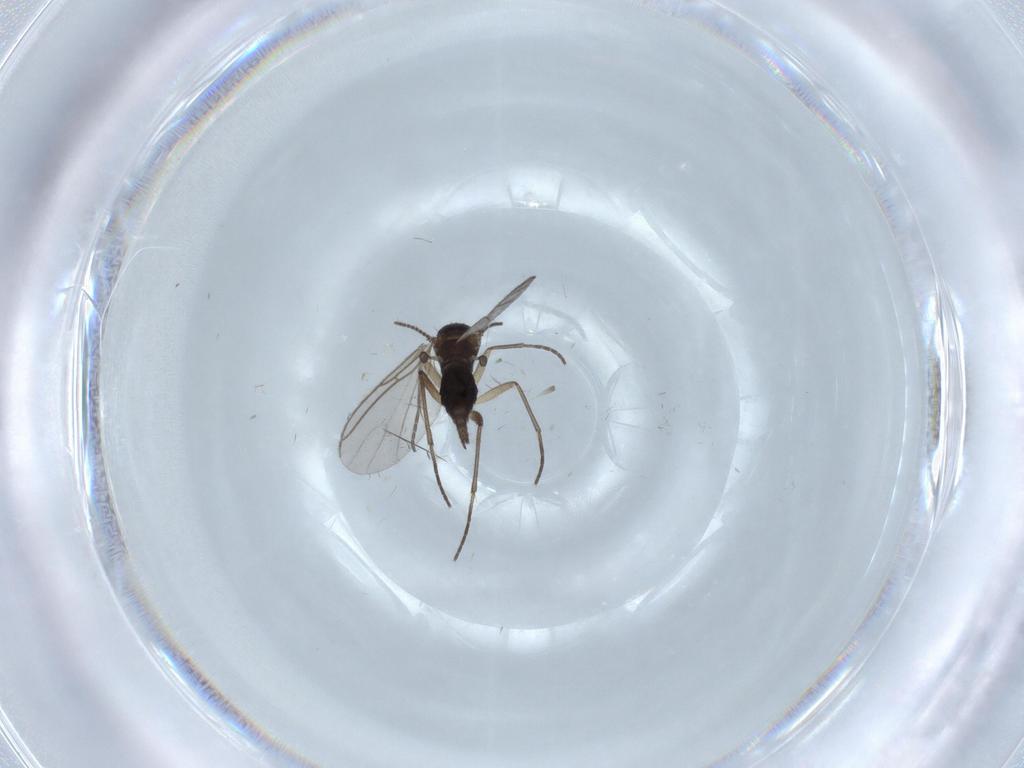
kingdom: Animalia
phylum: Arthropoda
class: Insecta
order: Diptera
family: Sciaridae
